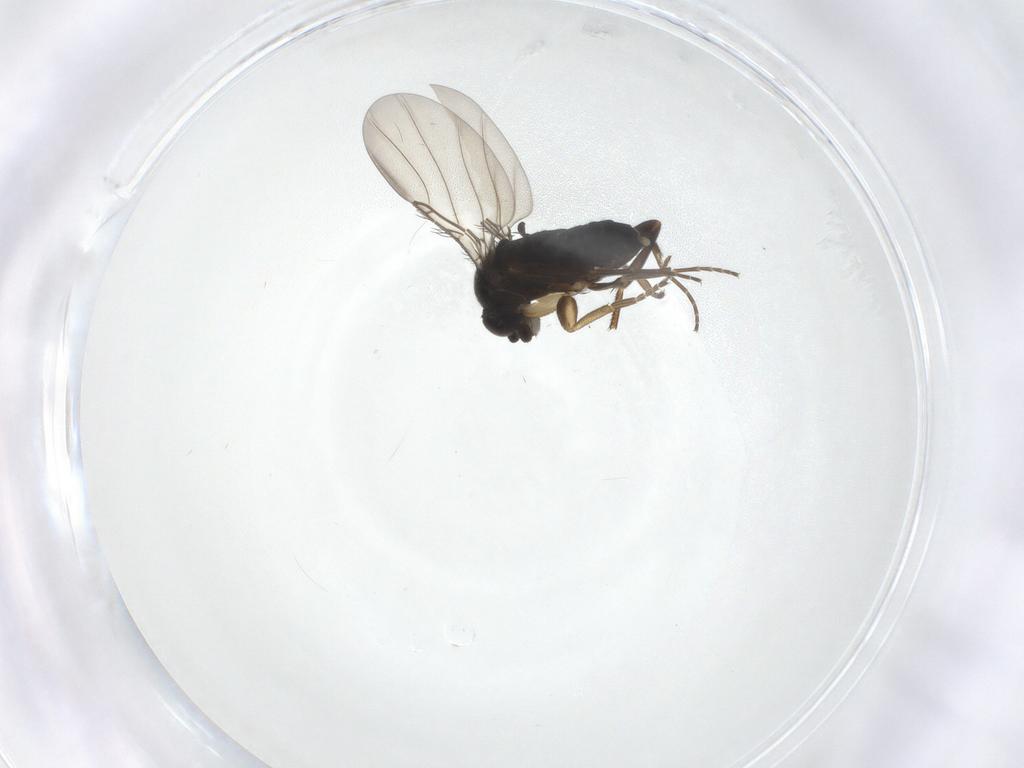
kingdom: Animalia
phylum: Arthropoda
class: Insecta
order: Diptera
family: Phoridae
